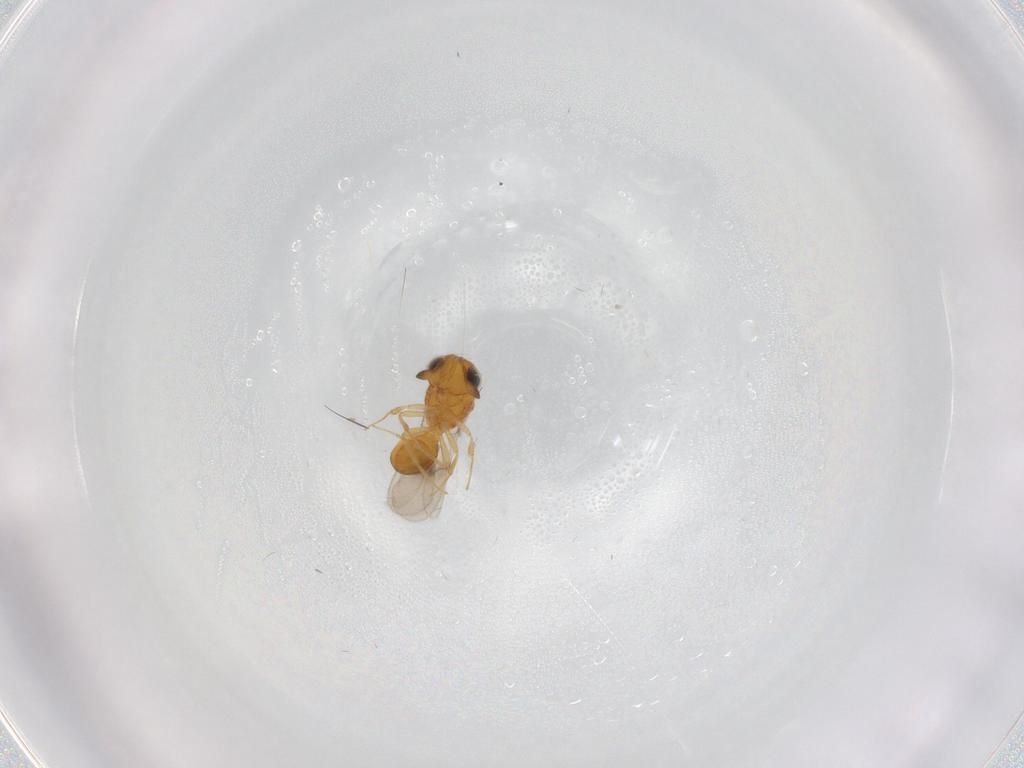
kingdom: Animalia
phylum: Arthropoda
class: Insecta
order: Hymenoptera
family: Scelionidae
